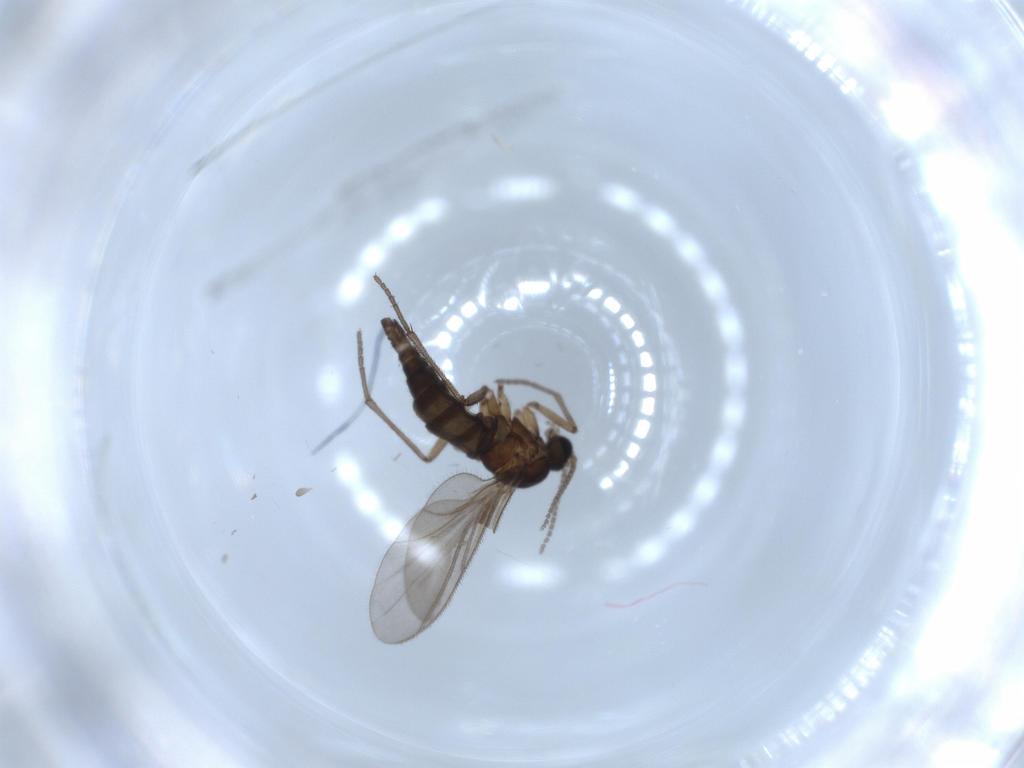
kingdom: Animalia
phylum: Arthropoda
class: Insecta
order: Diptera
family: Sciaridae
